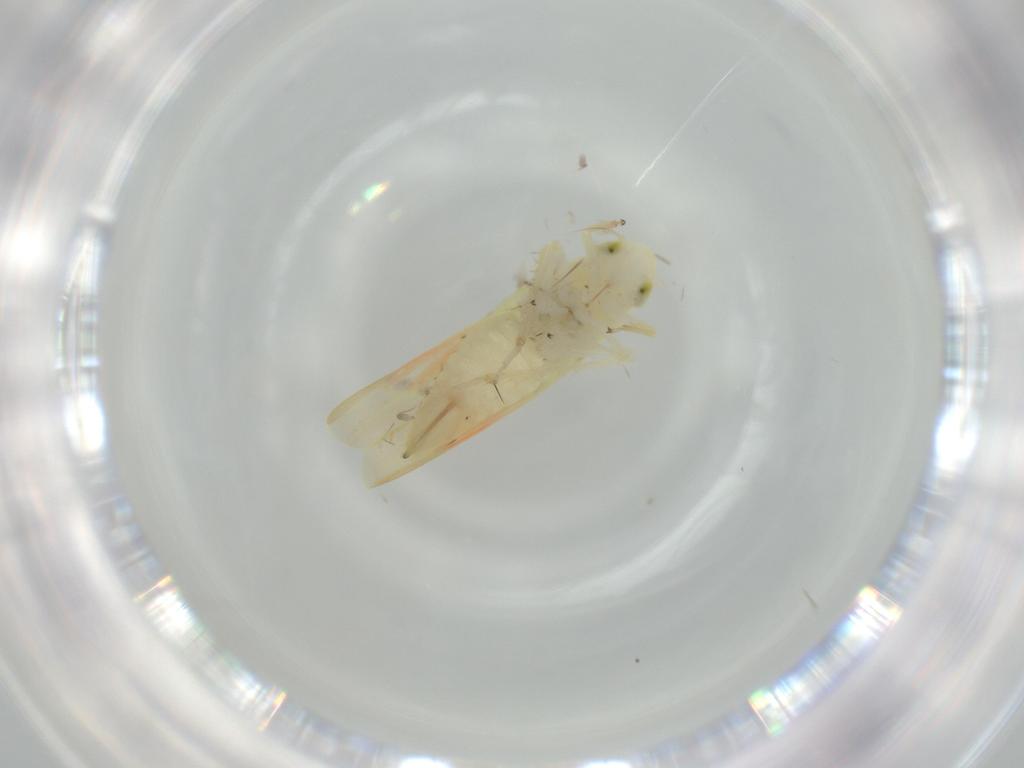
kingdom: Animalia
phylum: Arthropoda
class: Insecta
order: Hemiptera
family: Cicadellidae
